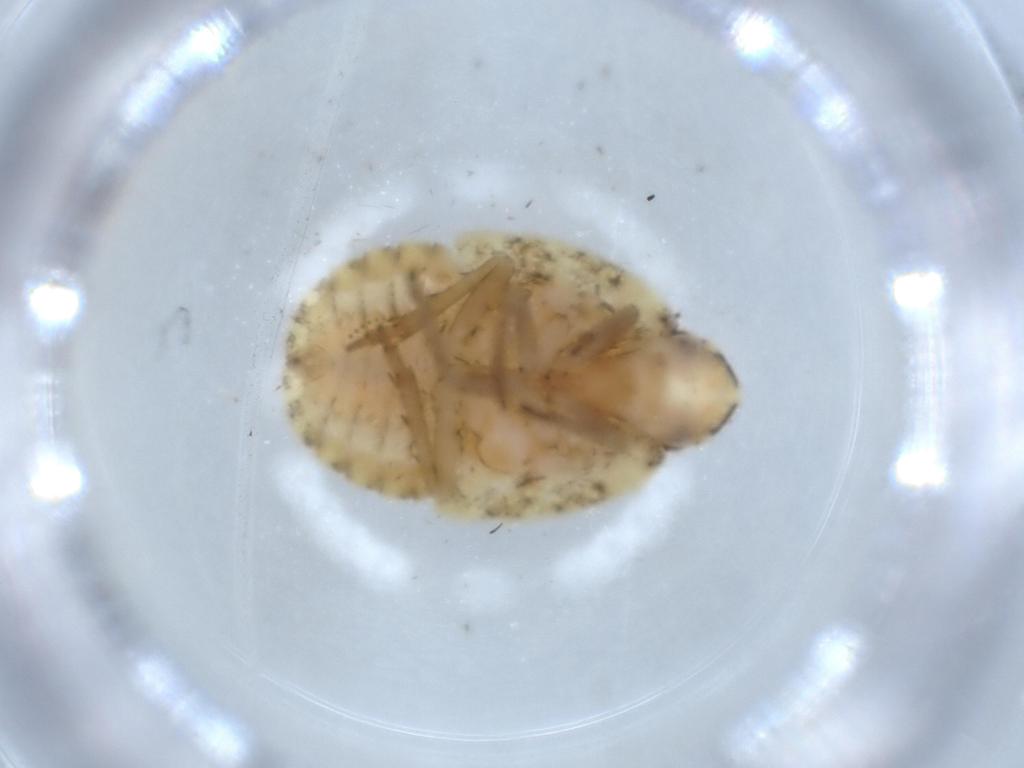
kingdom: Animalia
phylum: Arthropoda
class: Insecta
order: Hemiptera
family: Flatidae
